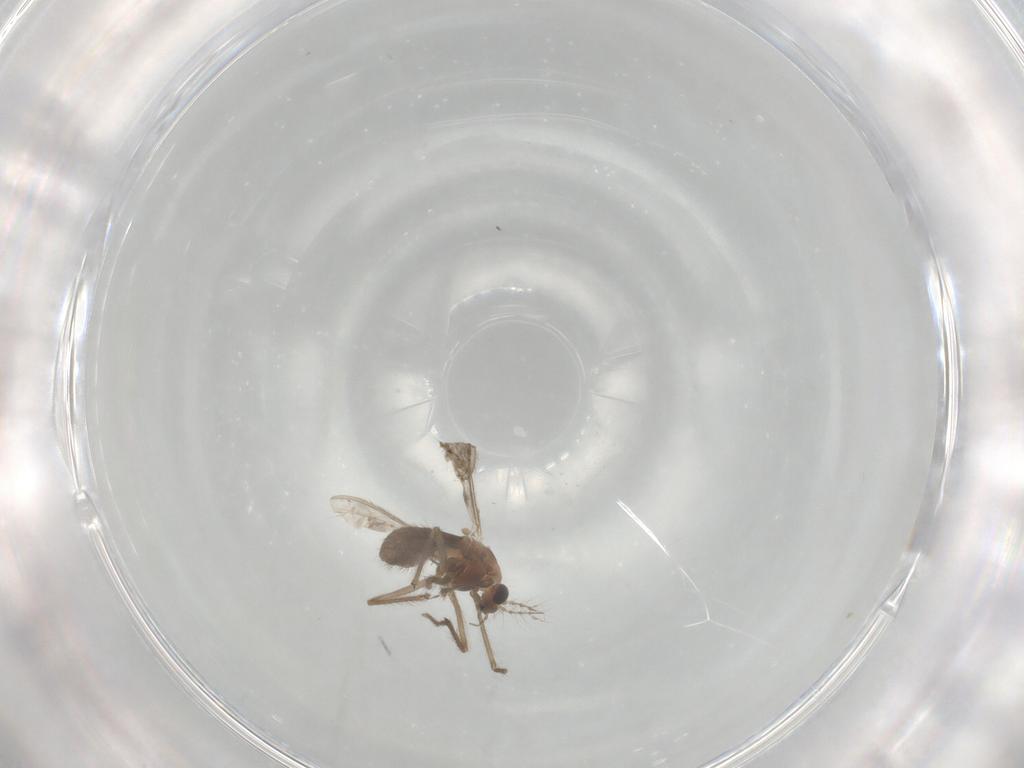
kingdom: Animalia
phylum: Arthropoda
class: Insecta
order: Diptera
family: Chironomidae
